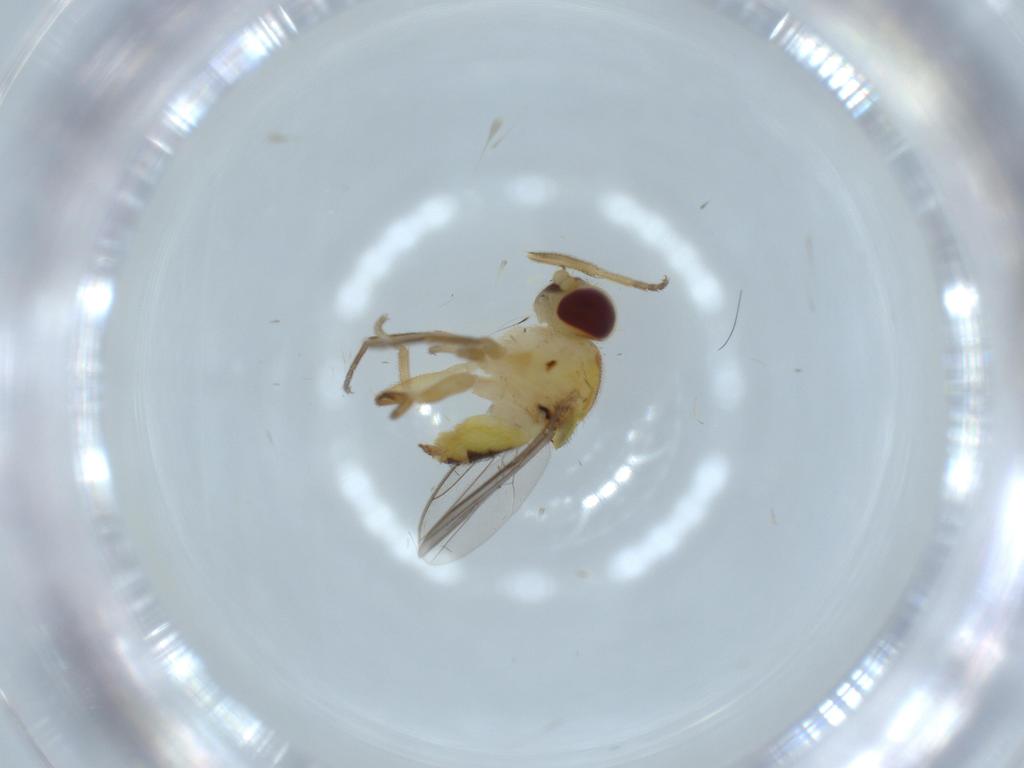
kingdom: Animalia
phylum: Arthropoda
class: Insecta
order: Diptera
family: Chloropidae
